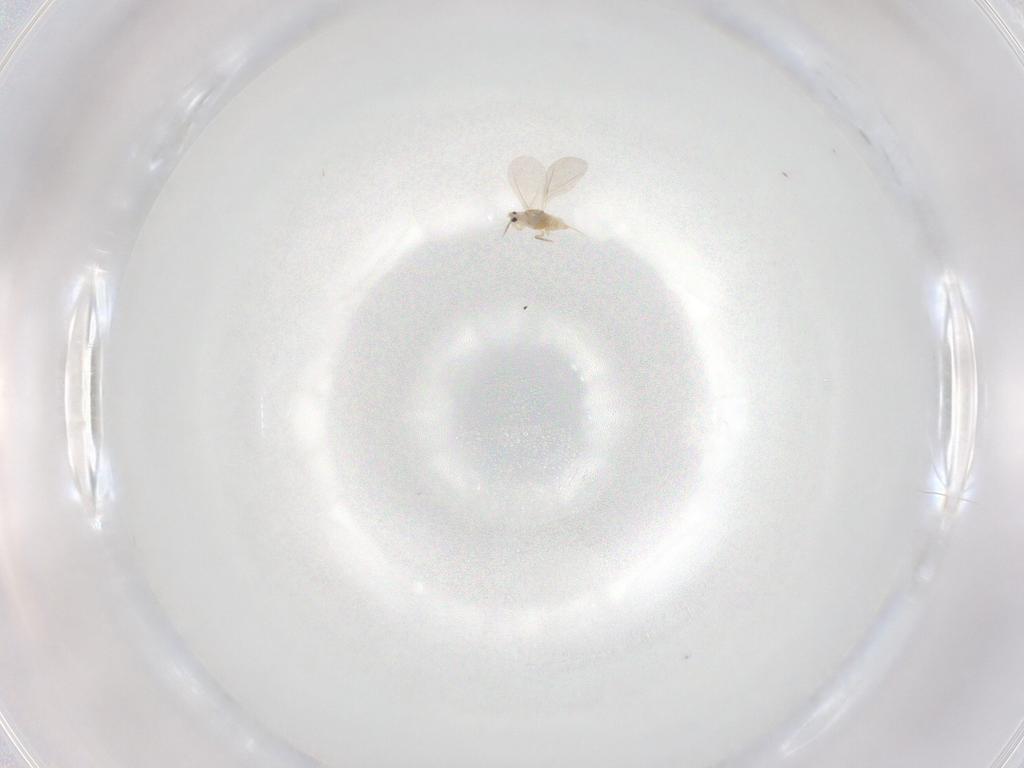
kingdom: Animalia
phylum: Arthropoda
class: Insecta
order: Hemiptera
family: Diaspididae
